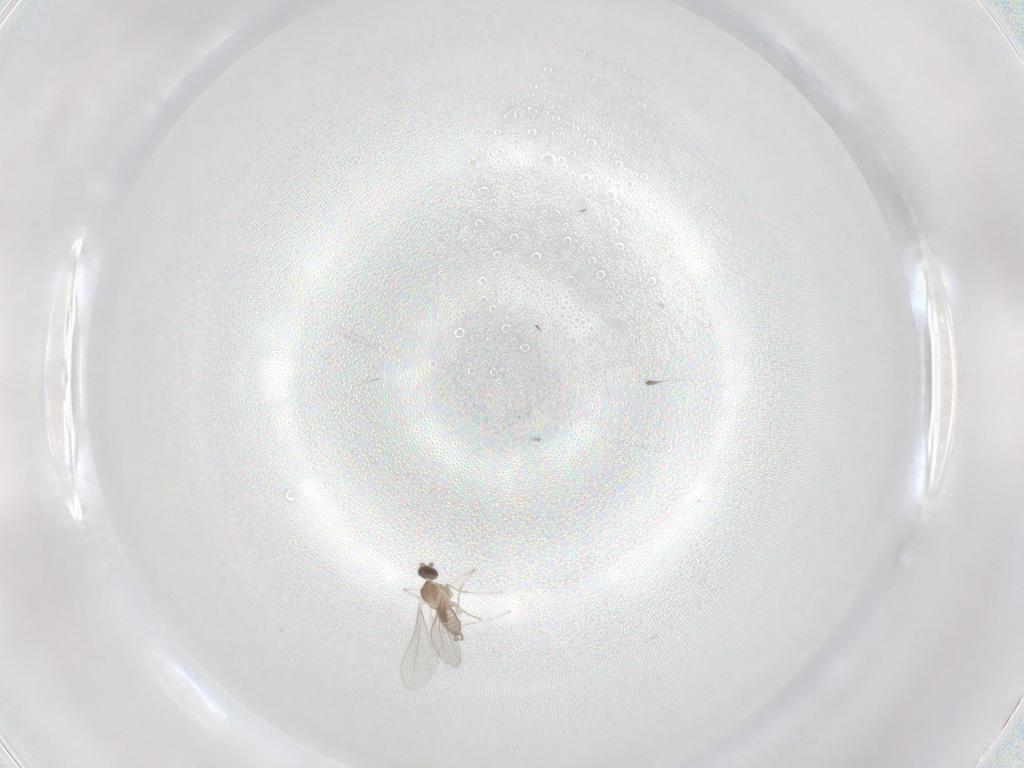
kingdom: Animalia
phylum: Arthropoda
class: Insecta
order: Diptera
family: Cecidomyiidae
